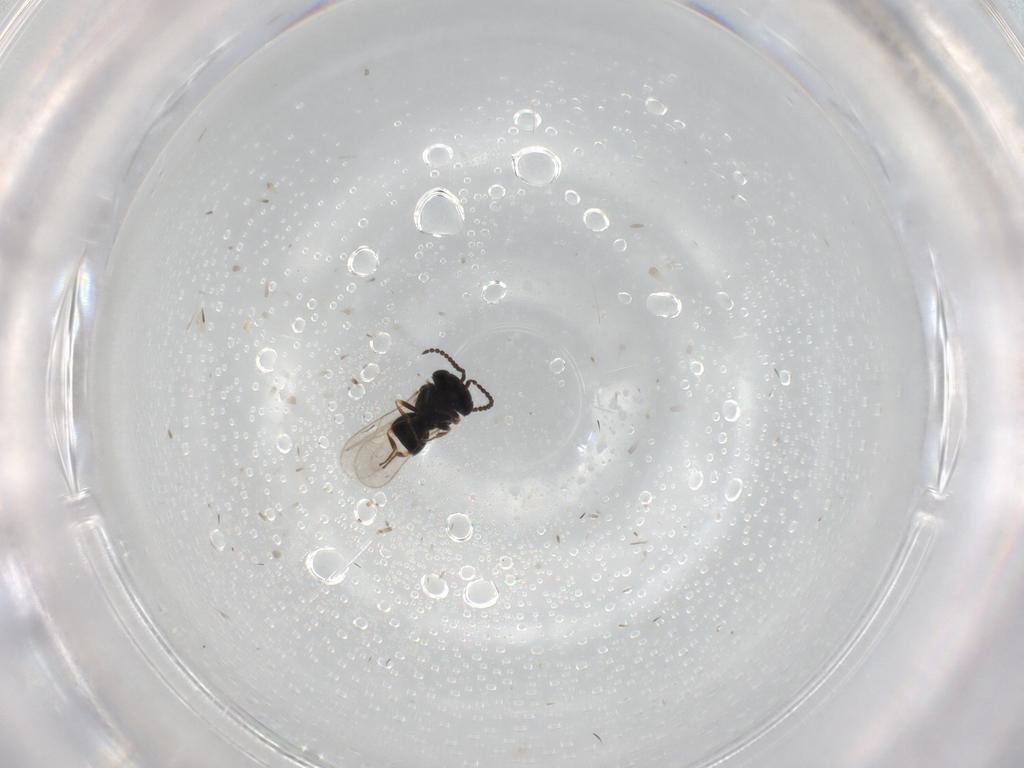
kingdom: Animalia
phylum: Arthropoda
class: Insecta
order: Hymenoptera
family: Scelionidae
